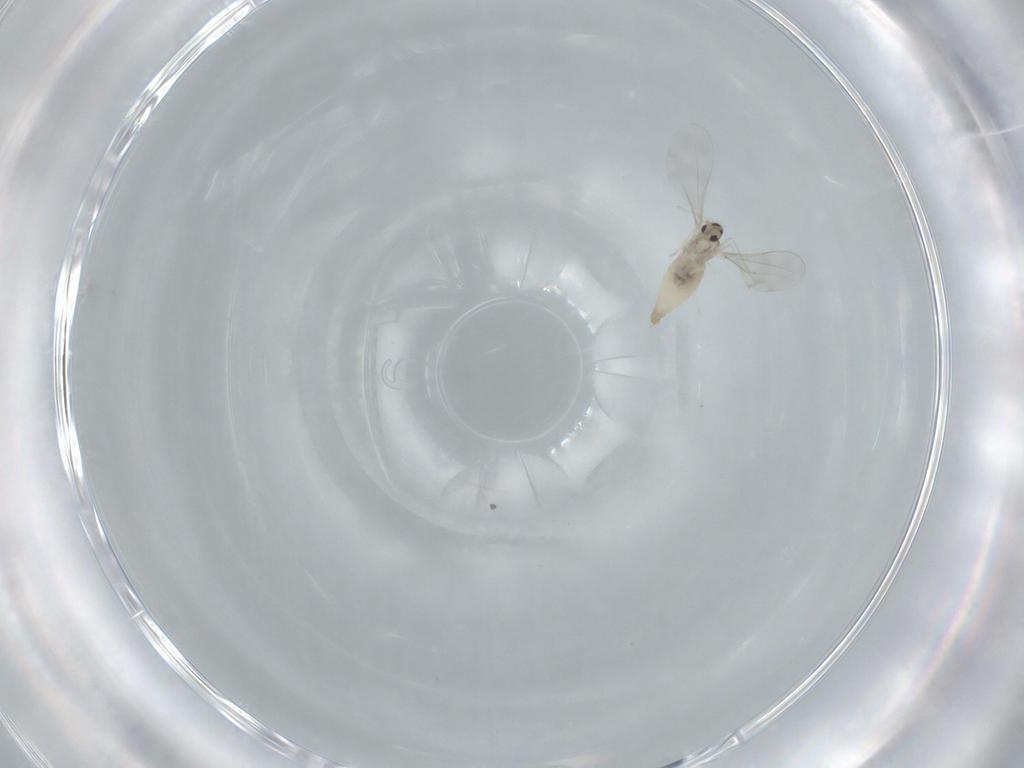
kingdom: Animalia
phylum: Arthropoda
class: Insecta
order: Diptera
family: Cecidomyiidae
